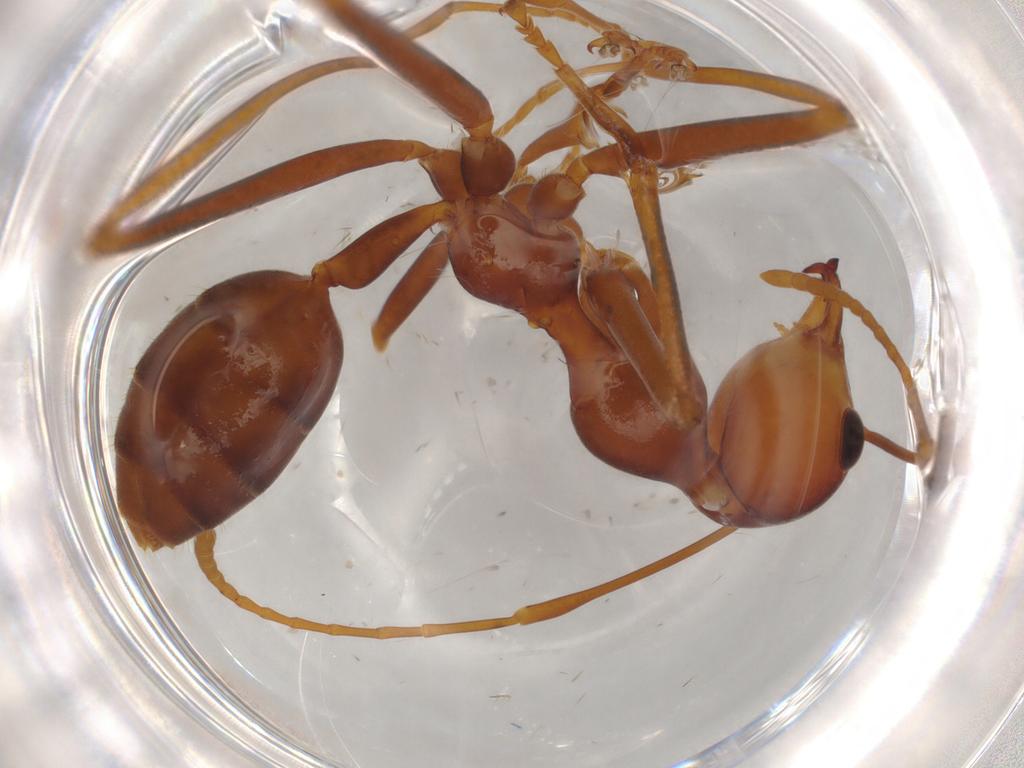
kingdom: Animalia
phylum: Arthropoda
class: Insecta
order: Hymenoptera
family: Formicidae
